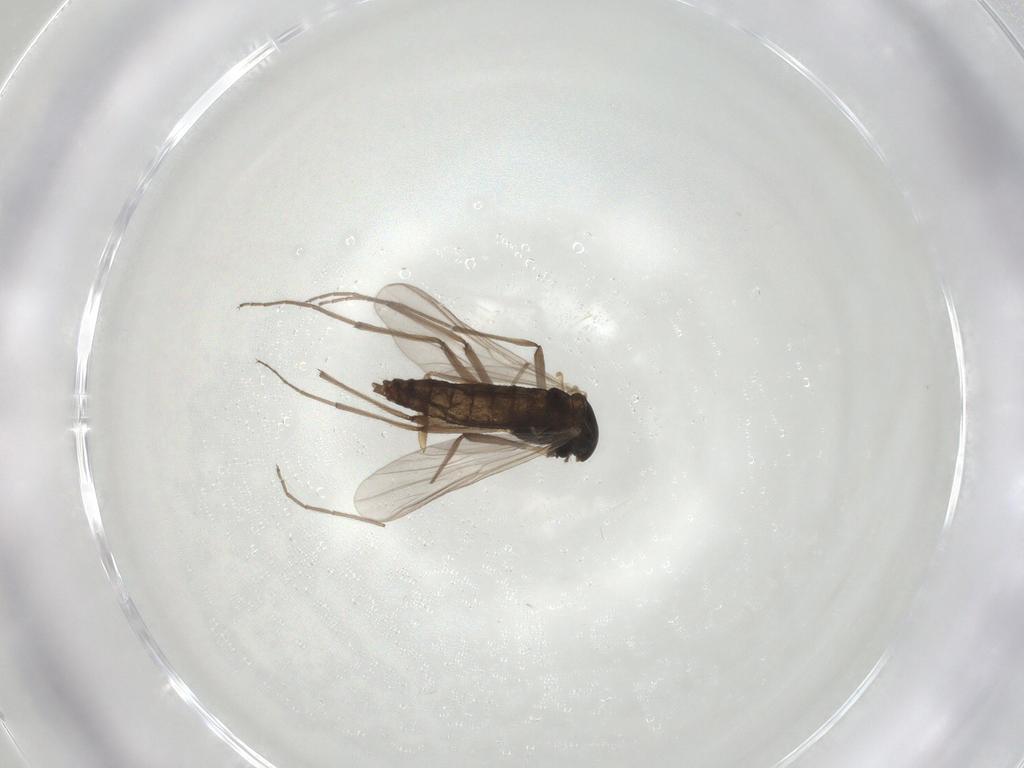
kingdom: Animalia
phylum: Arthropoda
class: Insecta
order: Diptera
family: Chironomidae
